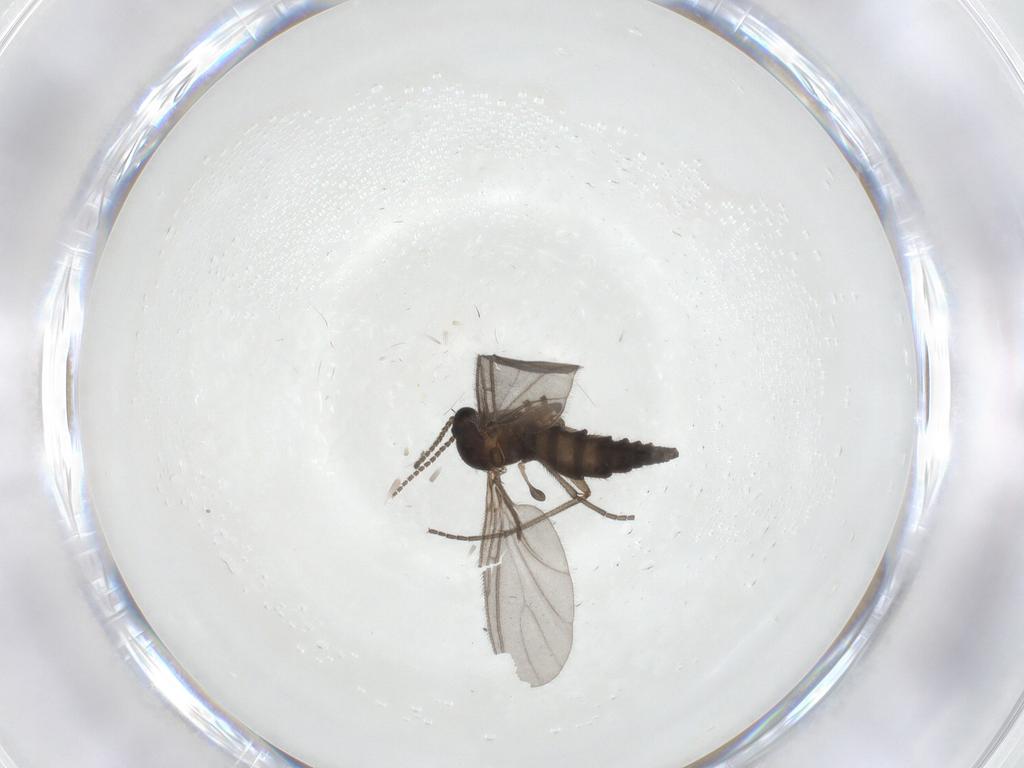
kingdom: Animalia
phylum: Arthropoda
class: Insecta
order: Diptera
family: Sciaridae
